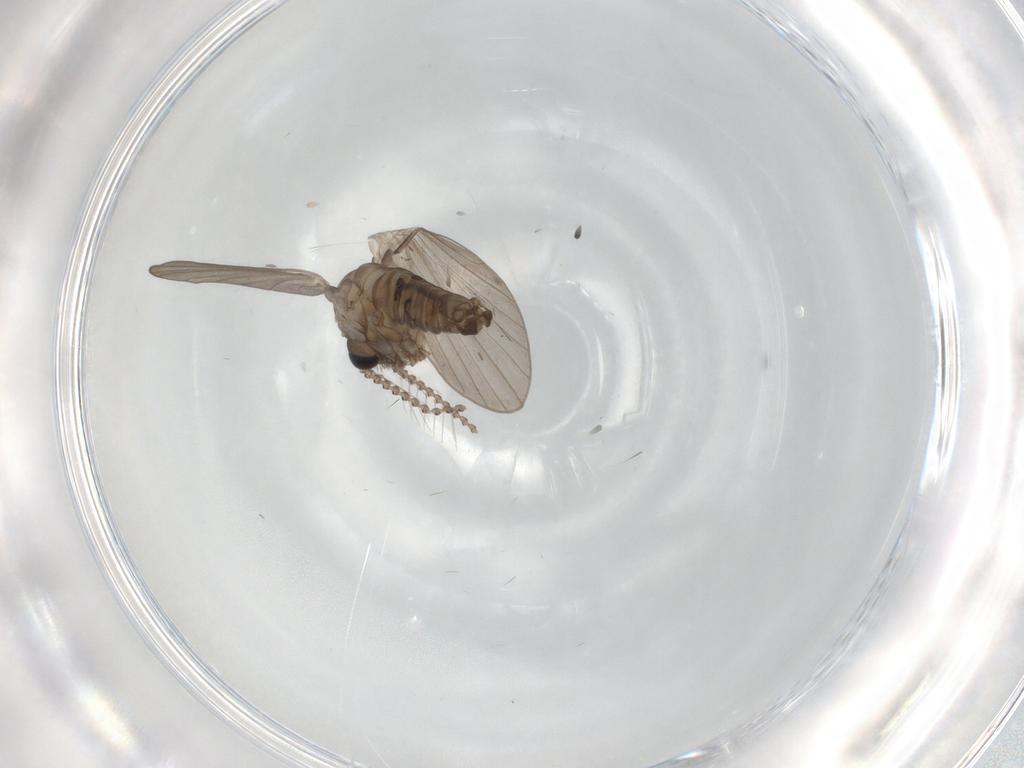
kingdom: Animalia
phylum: Arthropoda
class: Insecta
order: Diptera
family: Psychodidae
